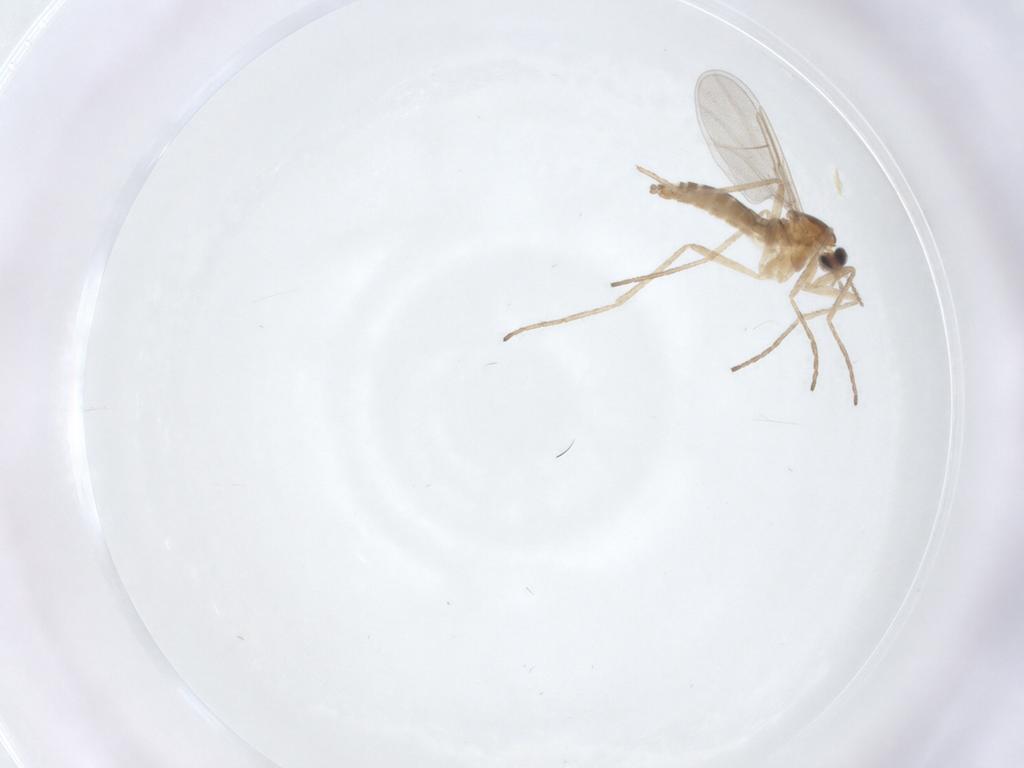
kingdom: Animalia
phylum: Arthropoda
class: Insecta
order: Diptera
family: Cecidomyiidae
